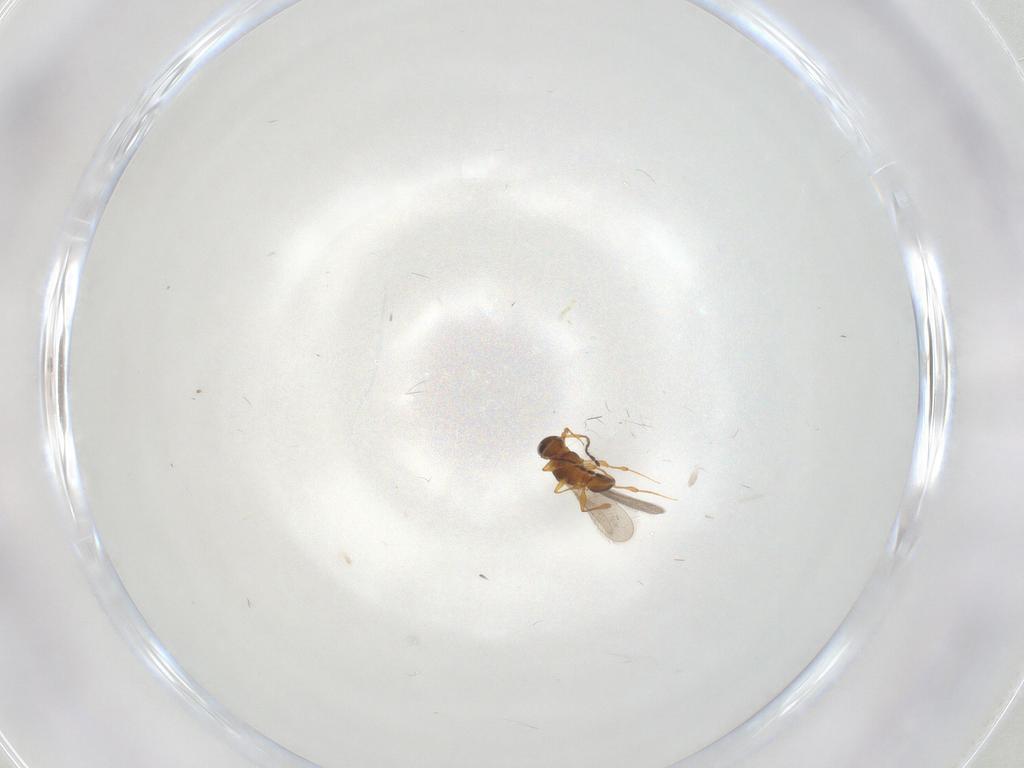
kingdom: Animalia
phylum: Arthropoda
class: Insecta
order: Hymenoptera
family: Platygastridae
